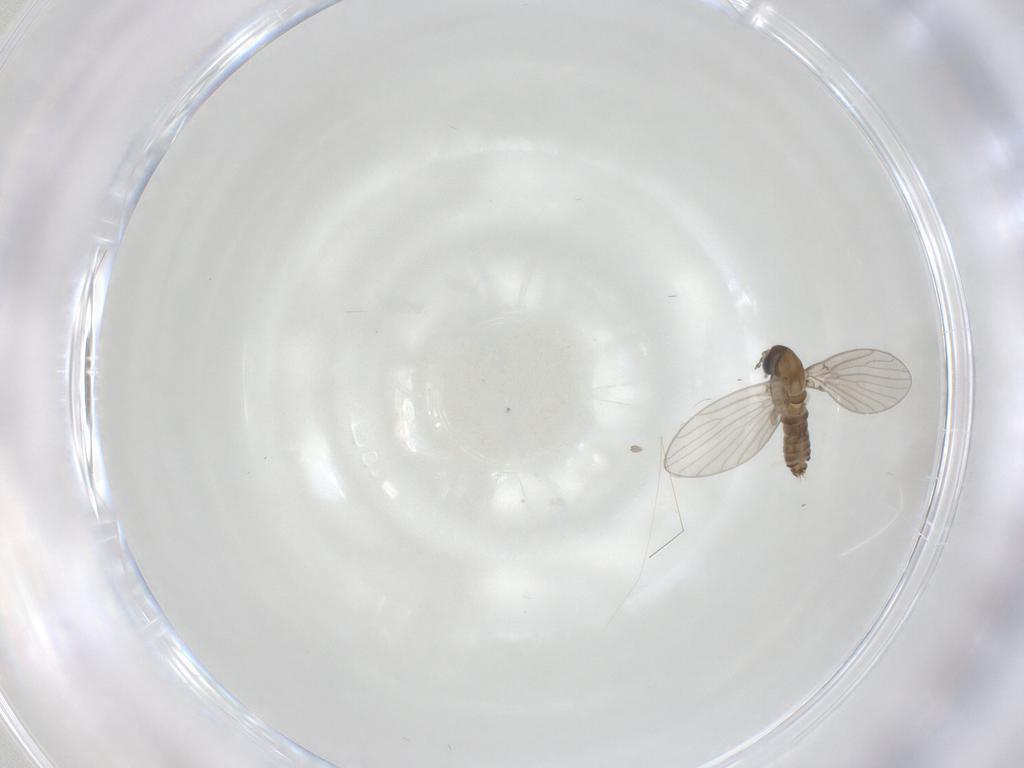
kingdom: Animalia
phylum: Arthropoda
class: Insecta
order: Diptera
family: Psychodidae
